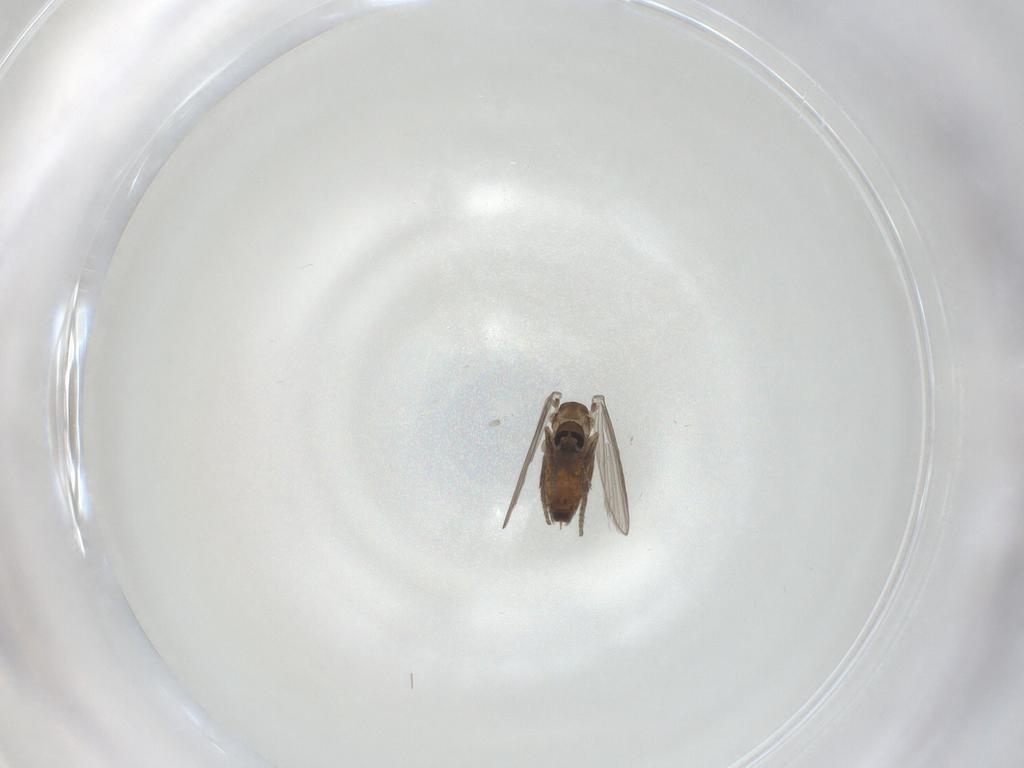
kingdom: Animalia
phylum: Arthropoda
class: Insecta
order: Diptera
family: Psychodidae
